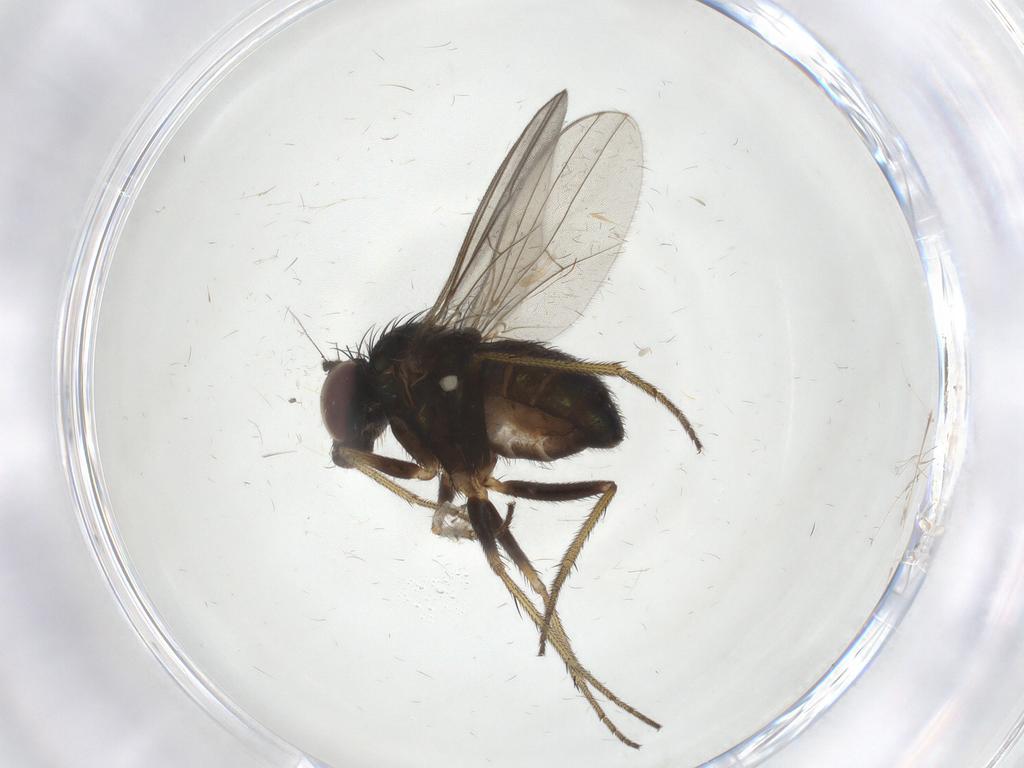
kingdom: Animalia
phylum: Arthropoda
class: Insecta
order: Diptera
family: Dolichopodidae
